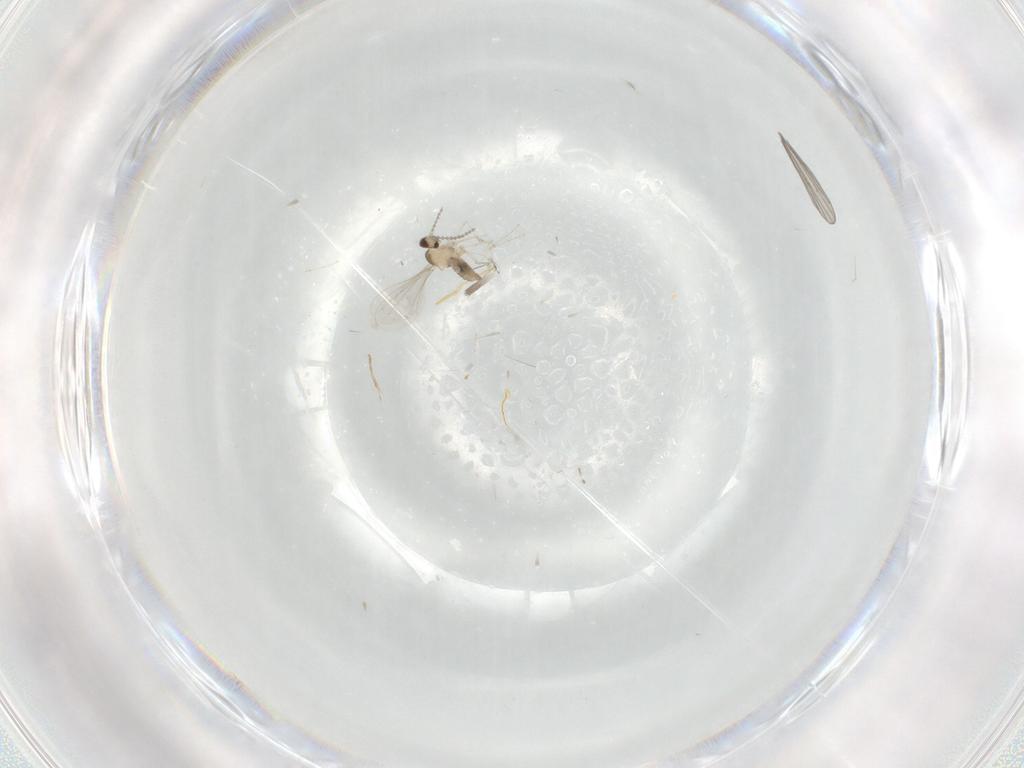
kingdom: Animalia
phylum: Arthropoda
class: Insecta
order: Diptera
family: Cecidomyiidae
